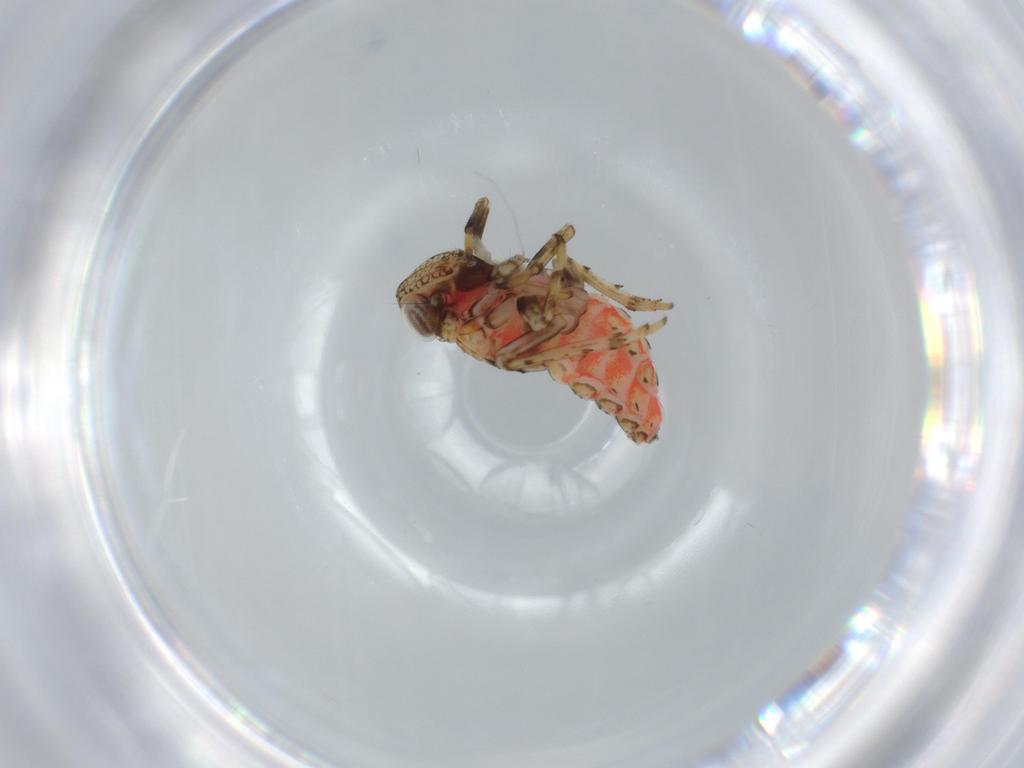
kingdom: Animalia
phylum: Arthropoda
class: Insecta
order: Hemiptera
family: Issidae
